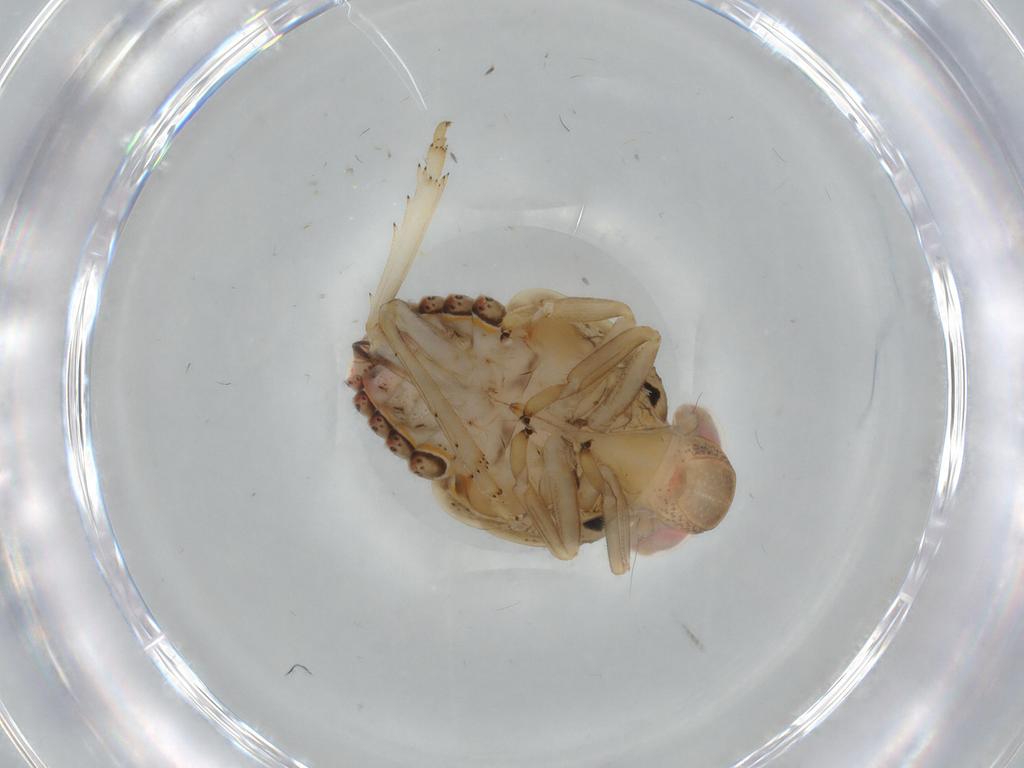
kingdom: Animalia
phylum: Arthropoda
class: Insecta
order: Hemiptera
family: Issidae
